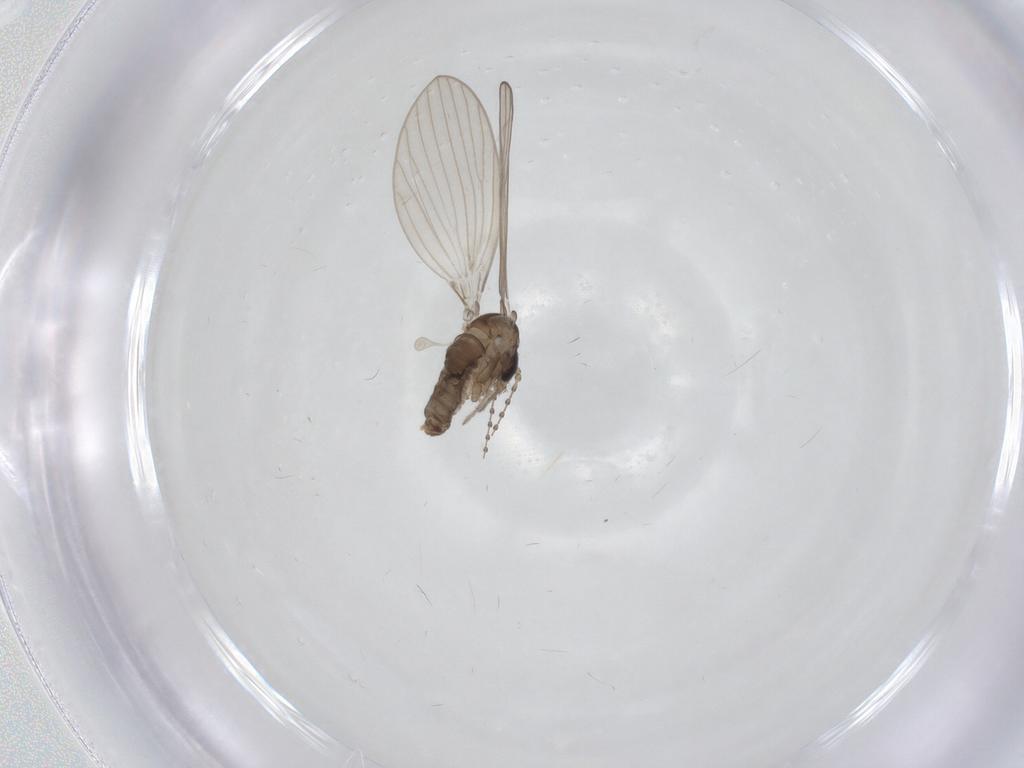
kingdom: Animalia
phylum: Arthropoda
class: Insecta
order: Diptera
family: Psychodidae
